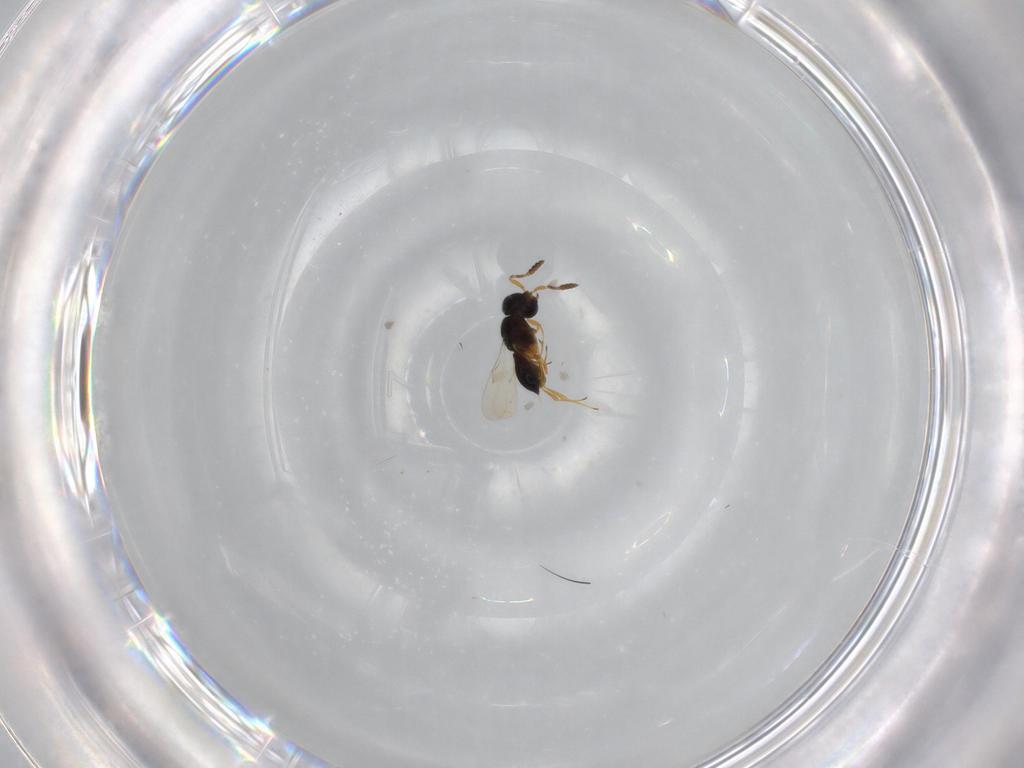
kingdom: Animalia
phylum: Arthropoda
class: Insecta
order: Hymenoptera
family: Scelionidae
